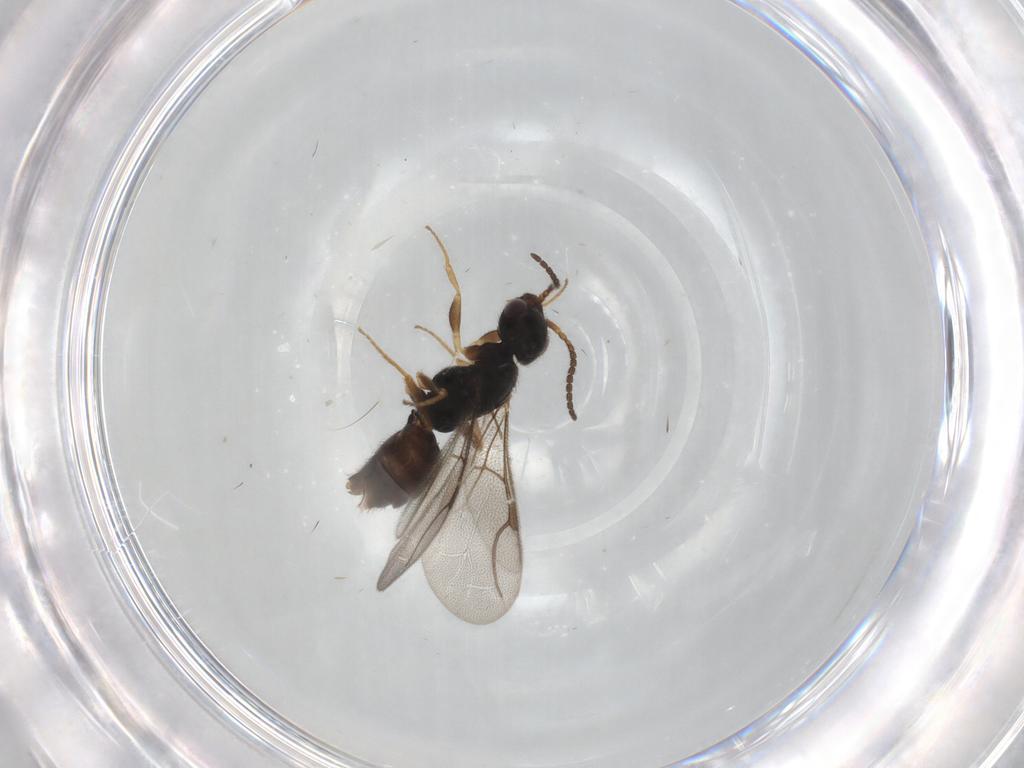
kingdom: Animalia
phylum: Arthropoda
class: Insecta
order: Hymenoptera
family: Bethylidae
